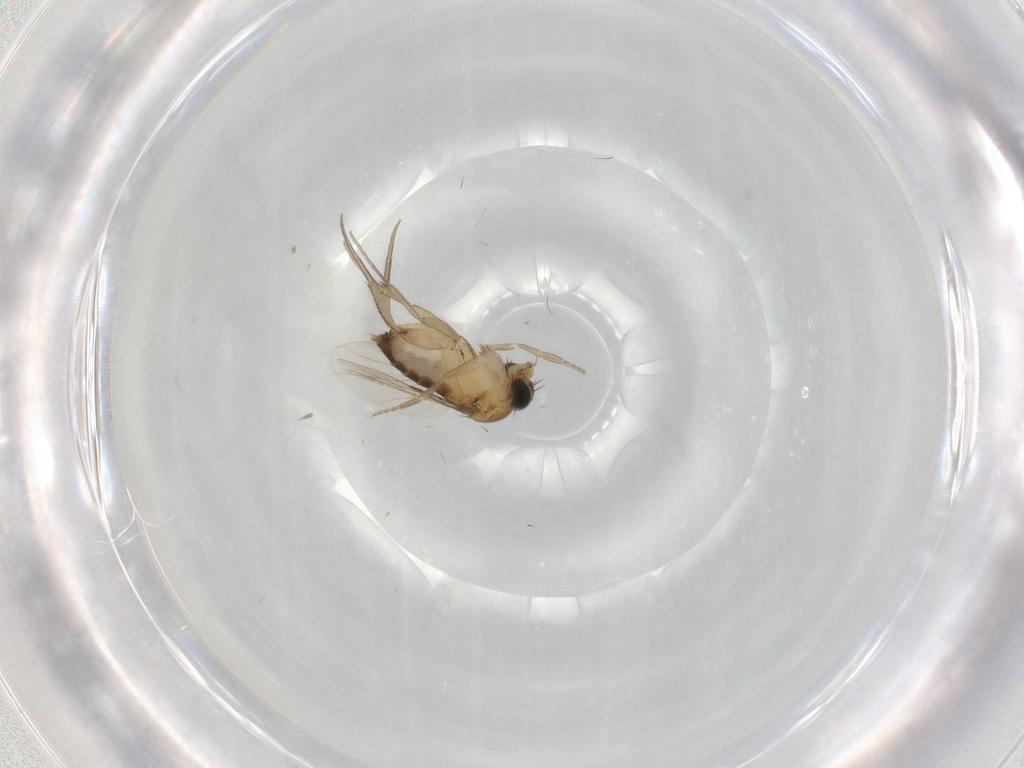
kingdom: Animalia
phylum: Arthropoda
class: Insecta
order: Diptera
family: Phoridae
